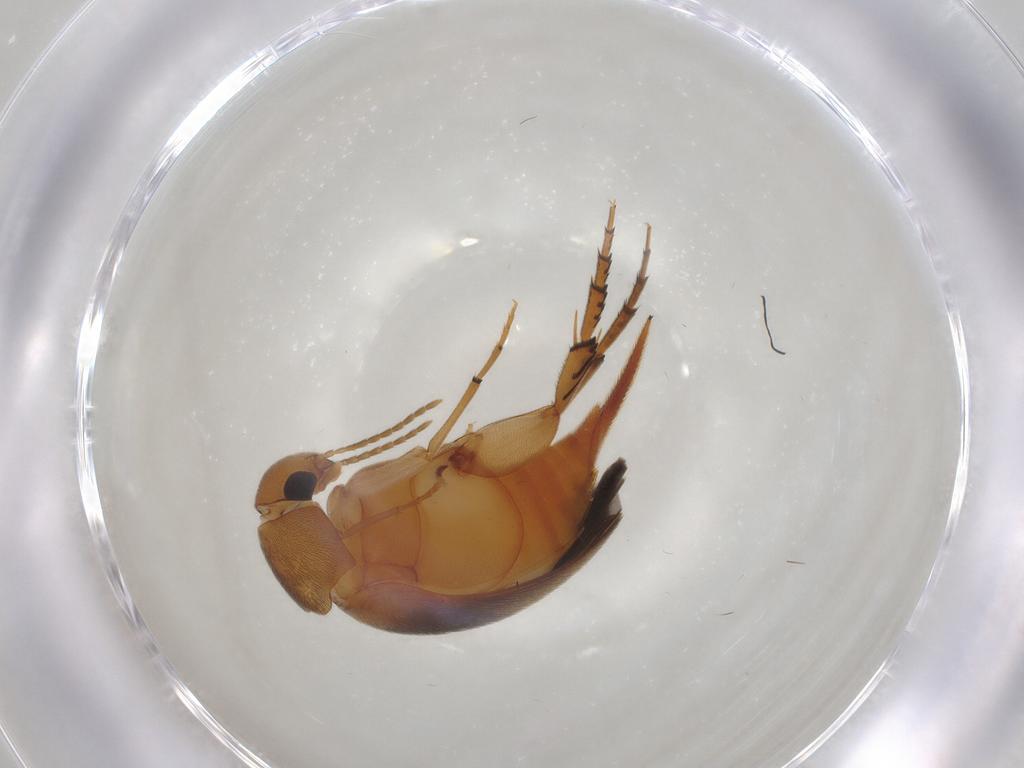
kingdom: Animalia
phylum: Arthropoda
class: Insecta
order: Coleoptera
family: Mordellidae
